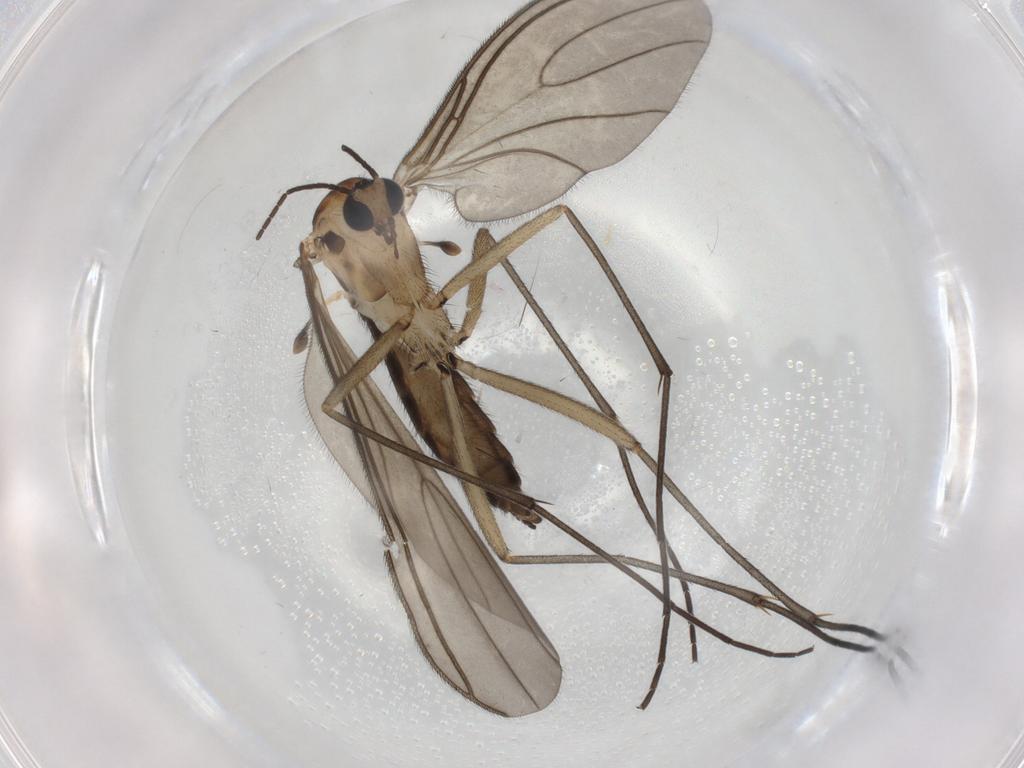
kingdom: Animalia
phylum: Arthropoda
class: Insecta
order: Diptera
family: Sciaridae
